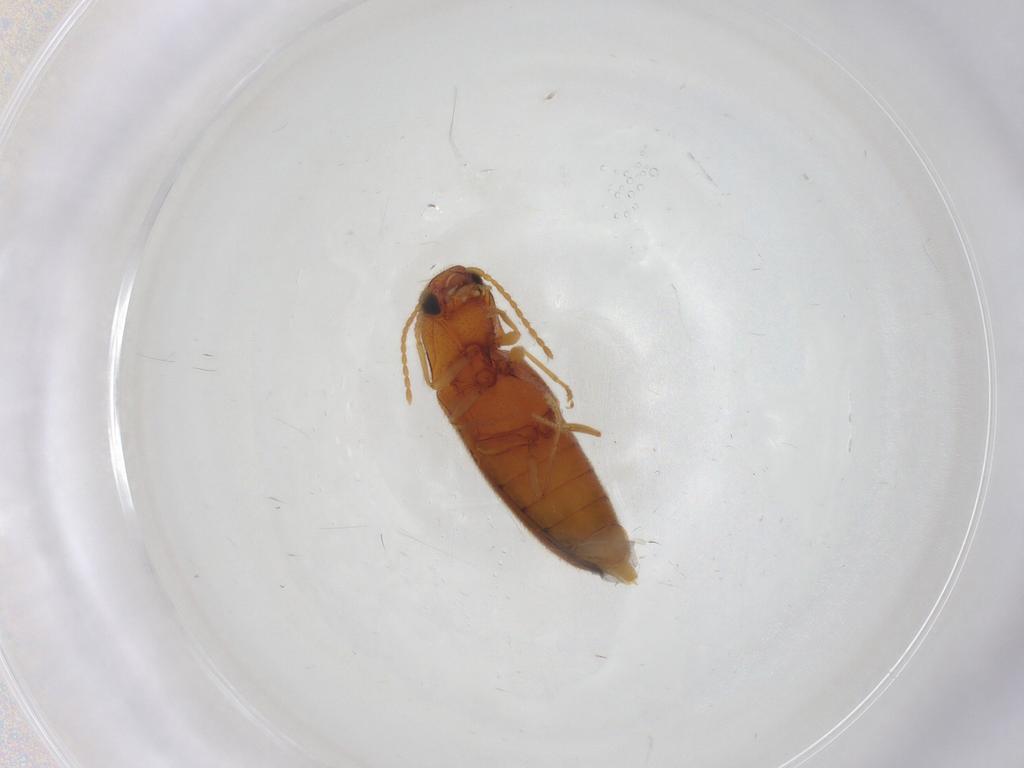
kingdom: Animalia
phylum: Arthropoda
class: Insecta
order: Coleoptera
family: Elateridae
